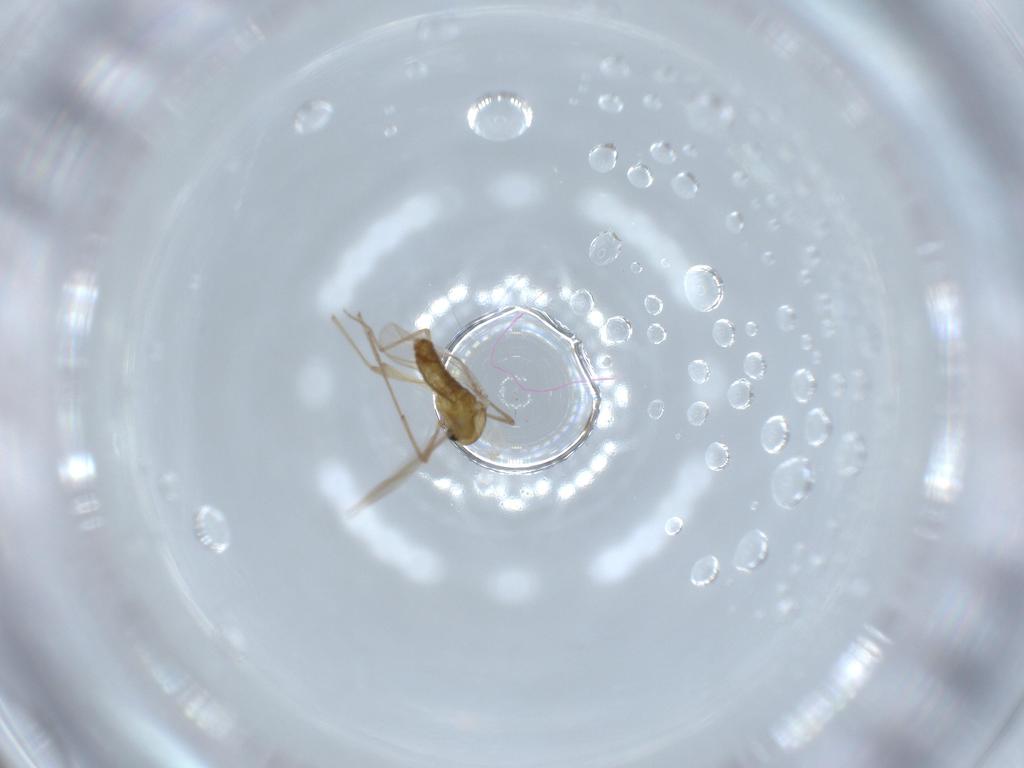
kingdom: Animalia
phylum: Arthropoda
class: Insecta
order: Diptera
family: Chironomidae
